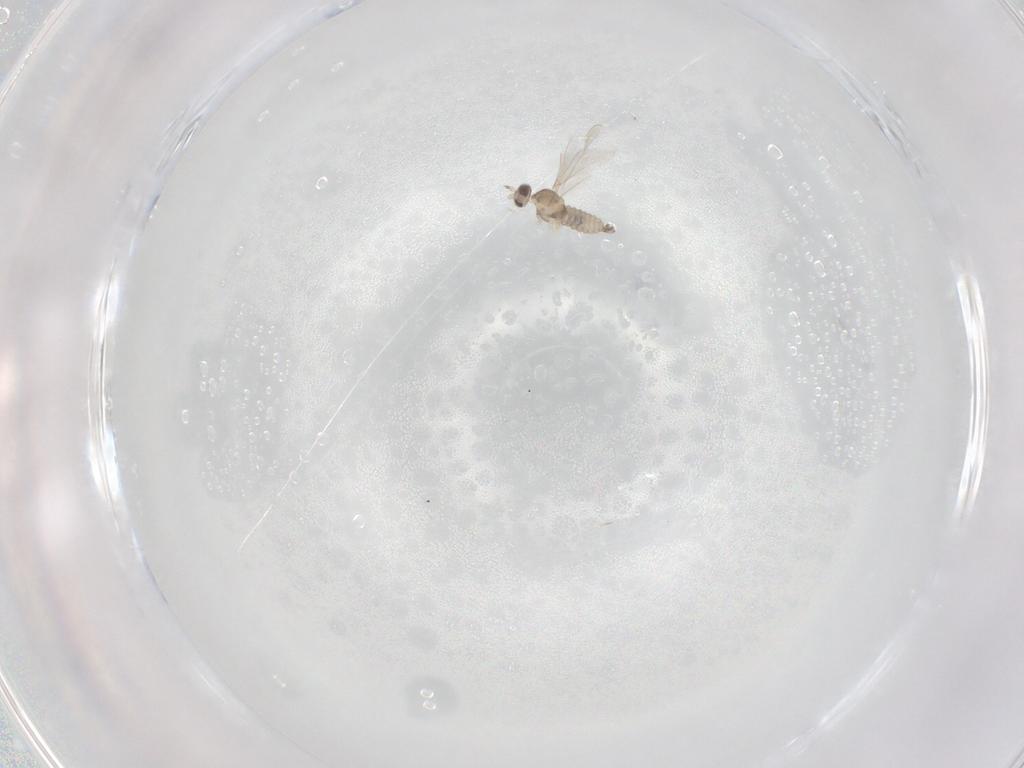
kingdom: Animalia
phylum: Arthropoda
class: Insecta
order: Diptera
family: Cecidomyiidae
